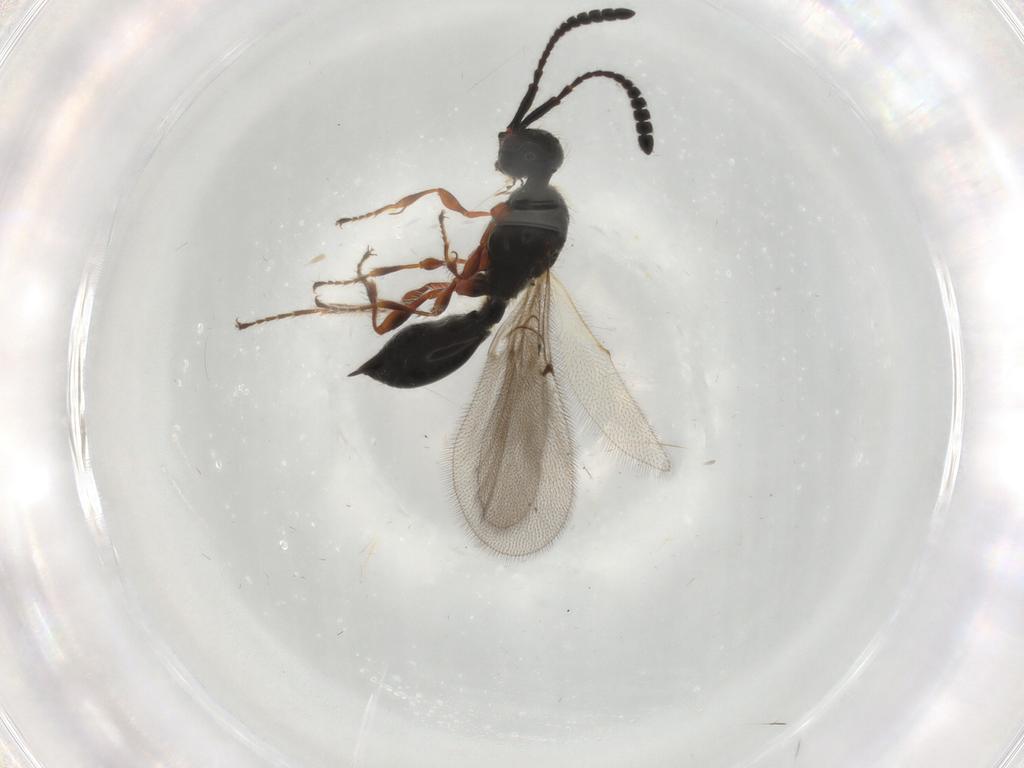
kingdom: Animalia
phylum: Arthropoda
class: Insecta
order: Hymenoptera
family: Diapriidae
